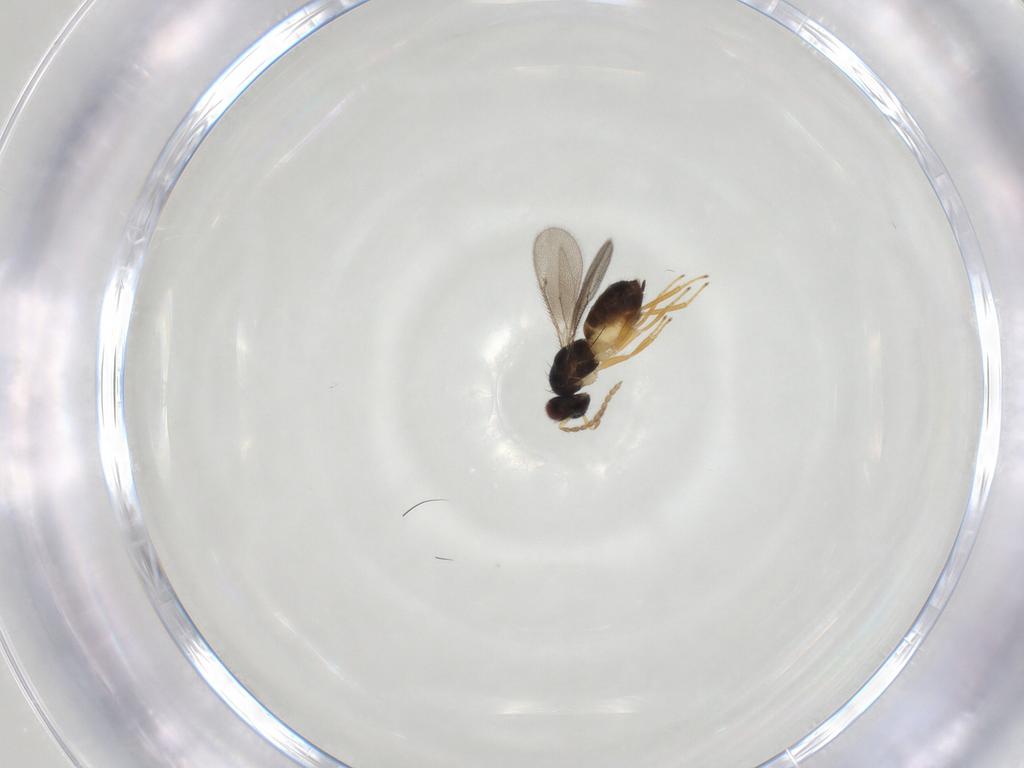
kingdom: Animalia
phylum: Arthropoda
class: Insecta
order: Hymenoptera
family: Eulophidae
